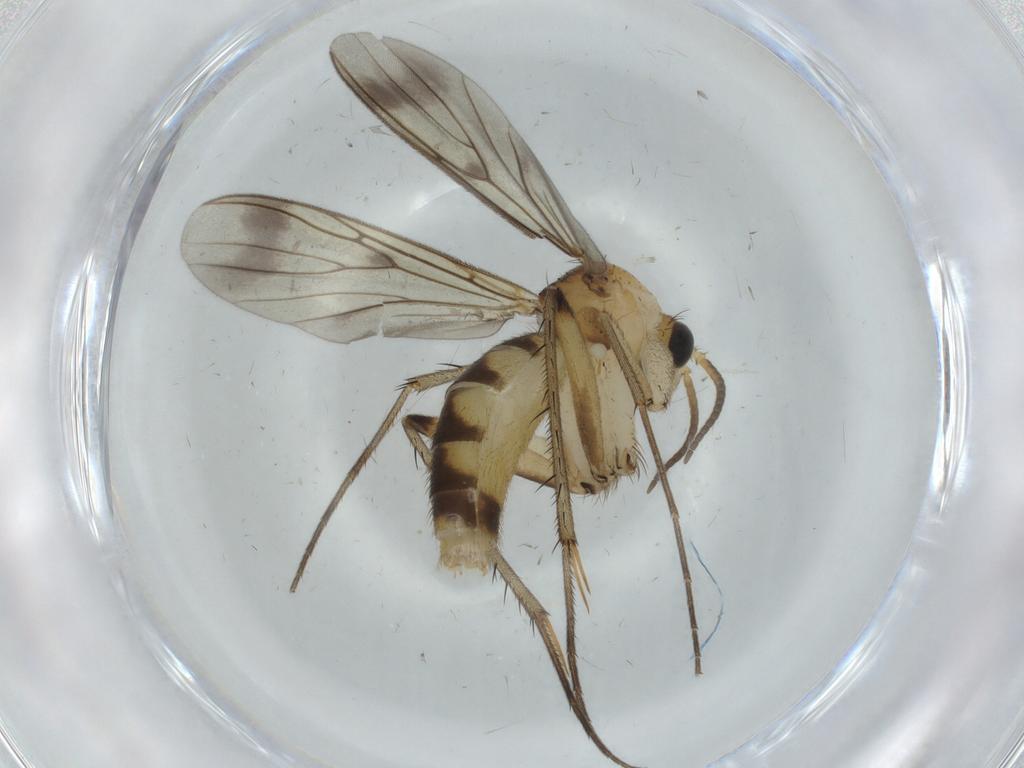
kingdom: Animalia
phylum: Arthropoda
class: Insecta
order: Diptera
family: Mycetophilidae
